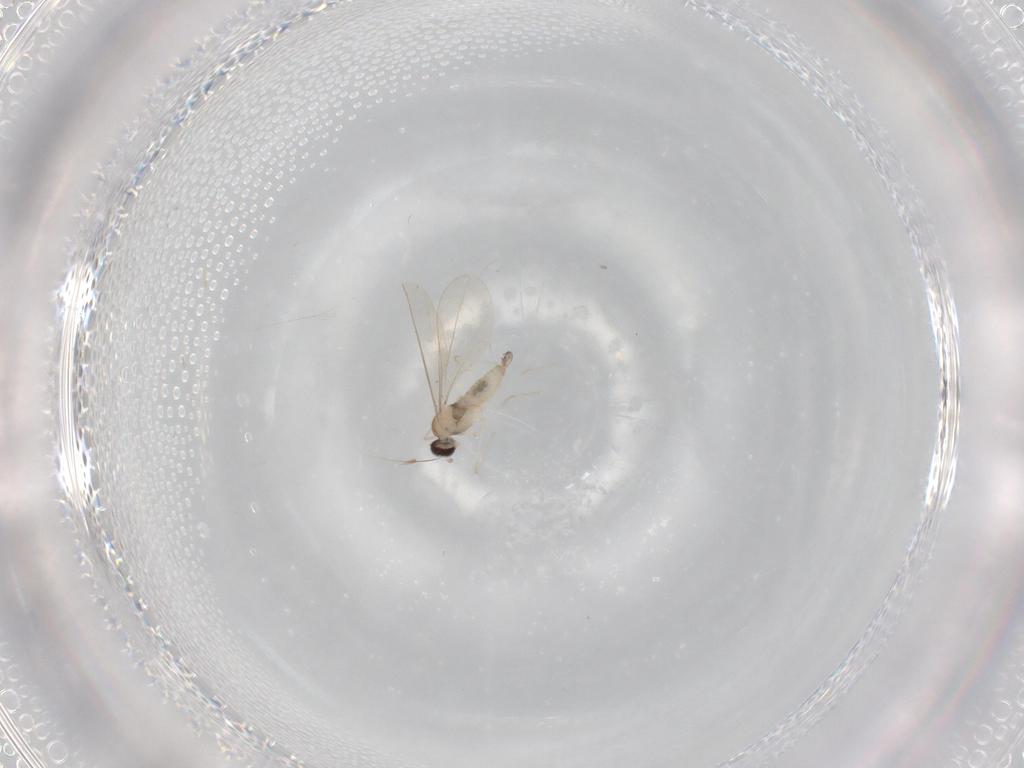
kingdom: Animalia
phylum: Arthropoda
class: Insecta
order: Diptera
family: Cecidomyiidae
